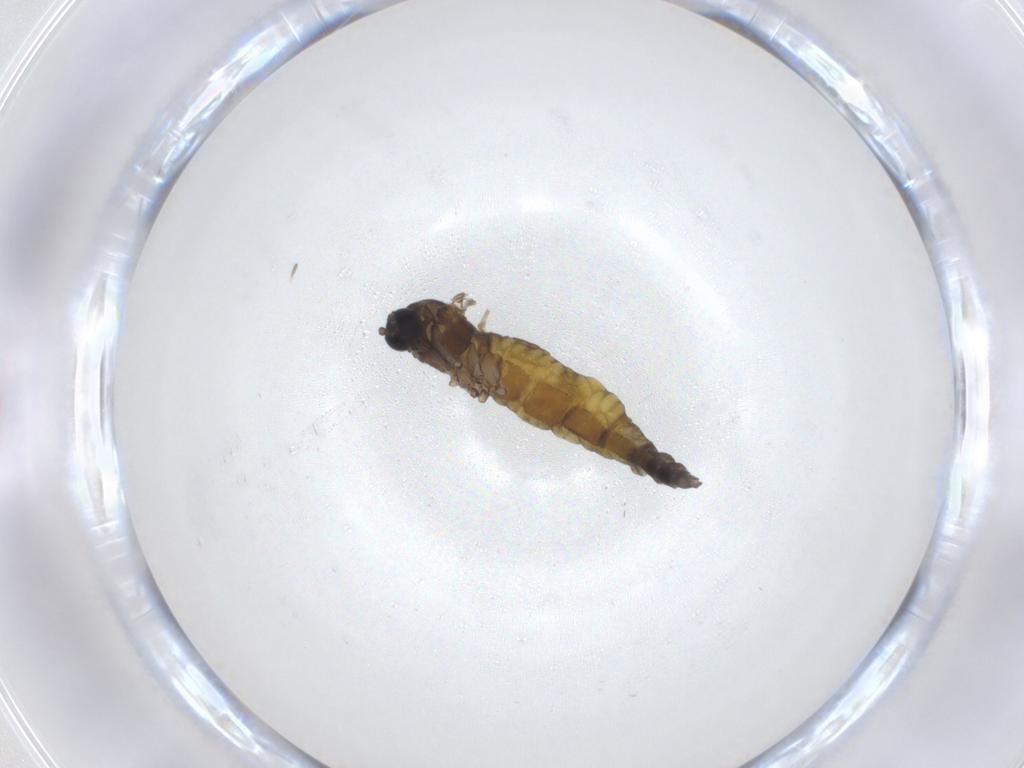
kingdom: Animalia
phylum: Arthropoda
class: Insecta
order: Diptera
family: Sciaridae
